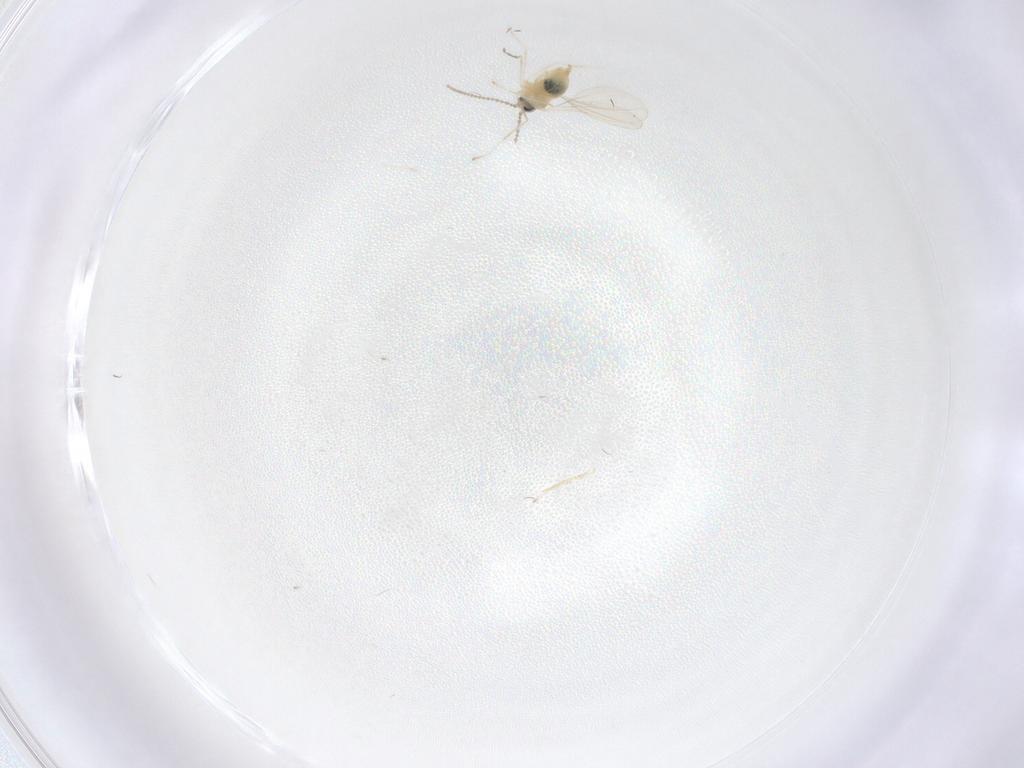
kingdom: Animalia
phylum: Arthropoda
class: Insecta
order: Diptera
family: Cecidomyiidae
